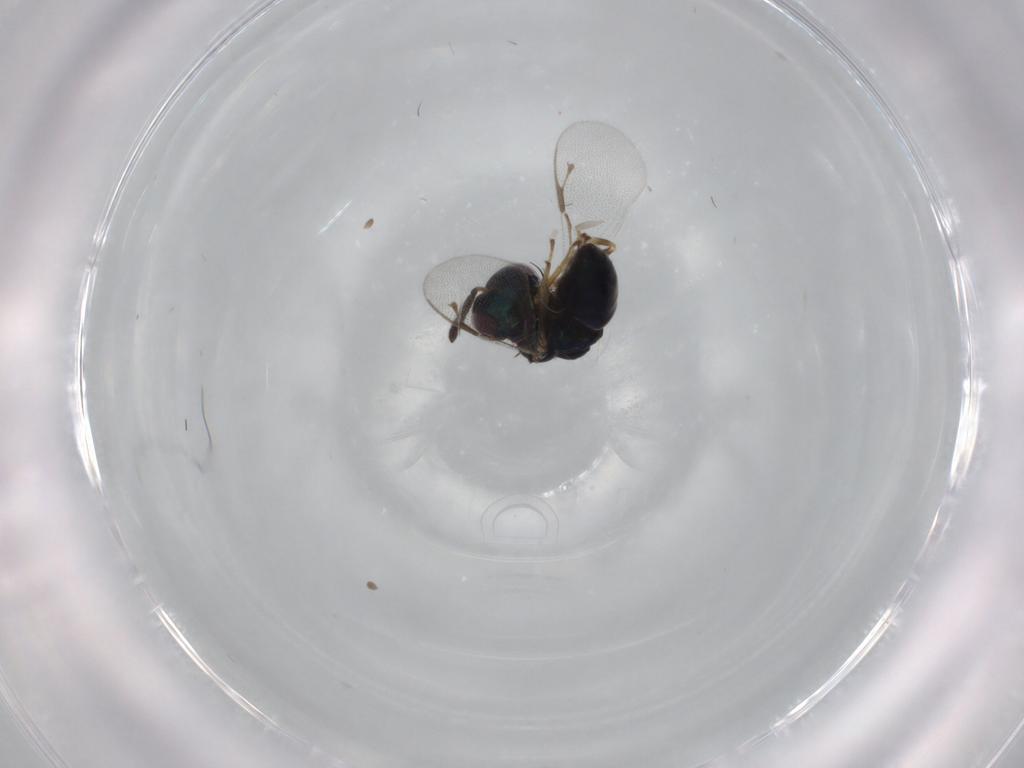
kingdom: Animalia
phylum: Arthropoda
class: Insecta
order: Hymenoptera
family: Pteromalidae
